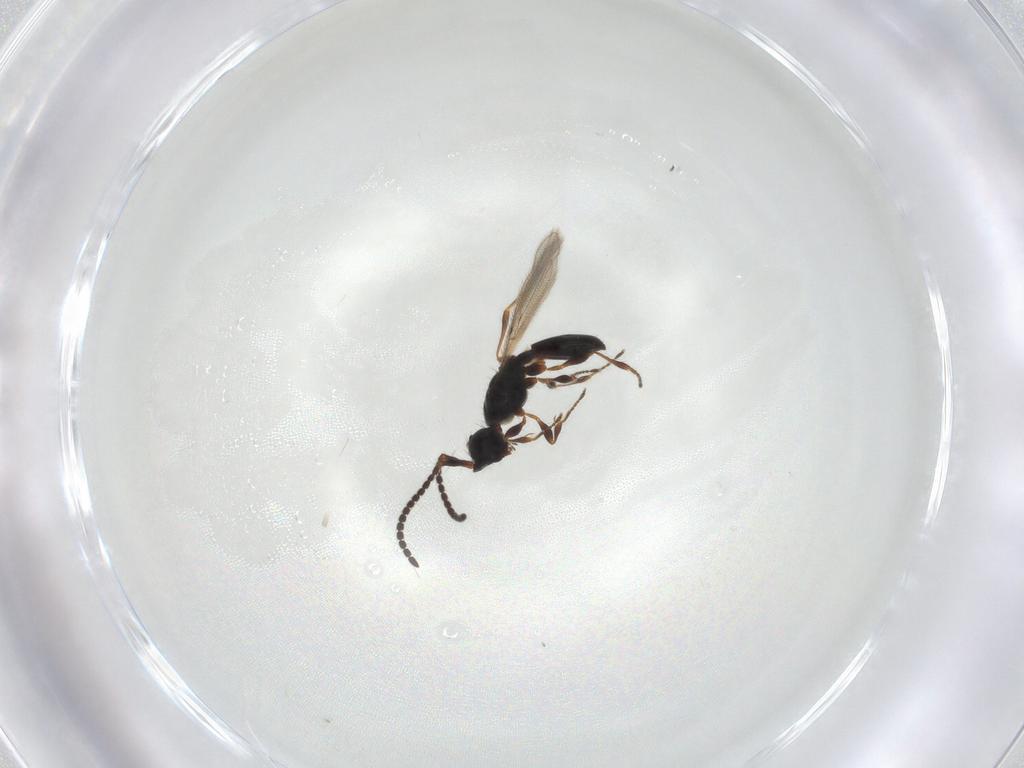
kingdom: Animalia
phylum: Arthropoda
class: Insecta
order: Hymenoptera
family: Diapriidae
